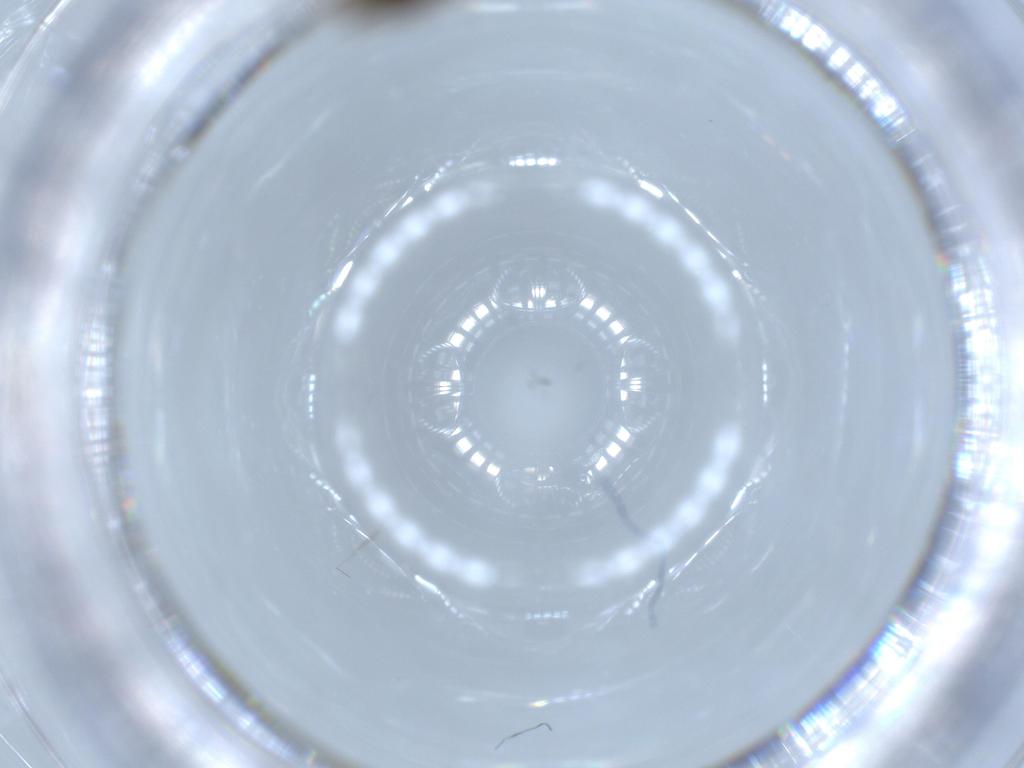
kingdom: Animalia
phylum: Arthropoda
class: Insecta
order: Diptera
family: Ceratopogonidae
